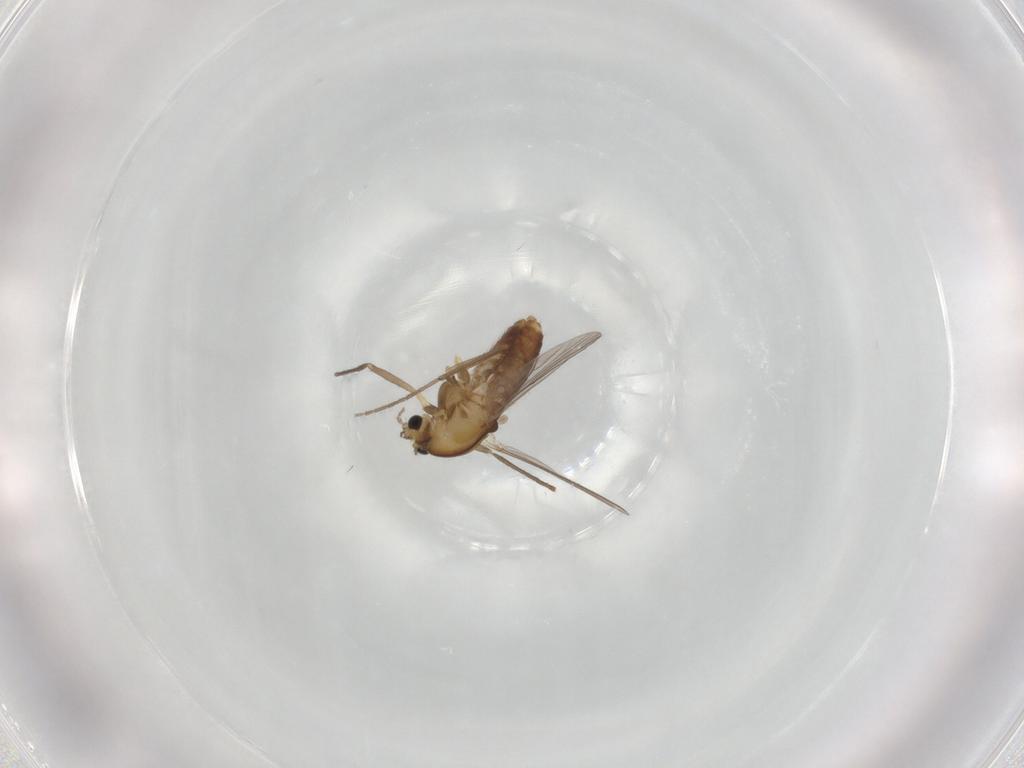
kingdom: Animalia
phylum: Arthropoda
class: Insecta
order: Diptera
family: Chironomidae
